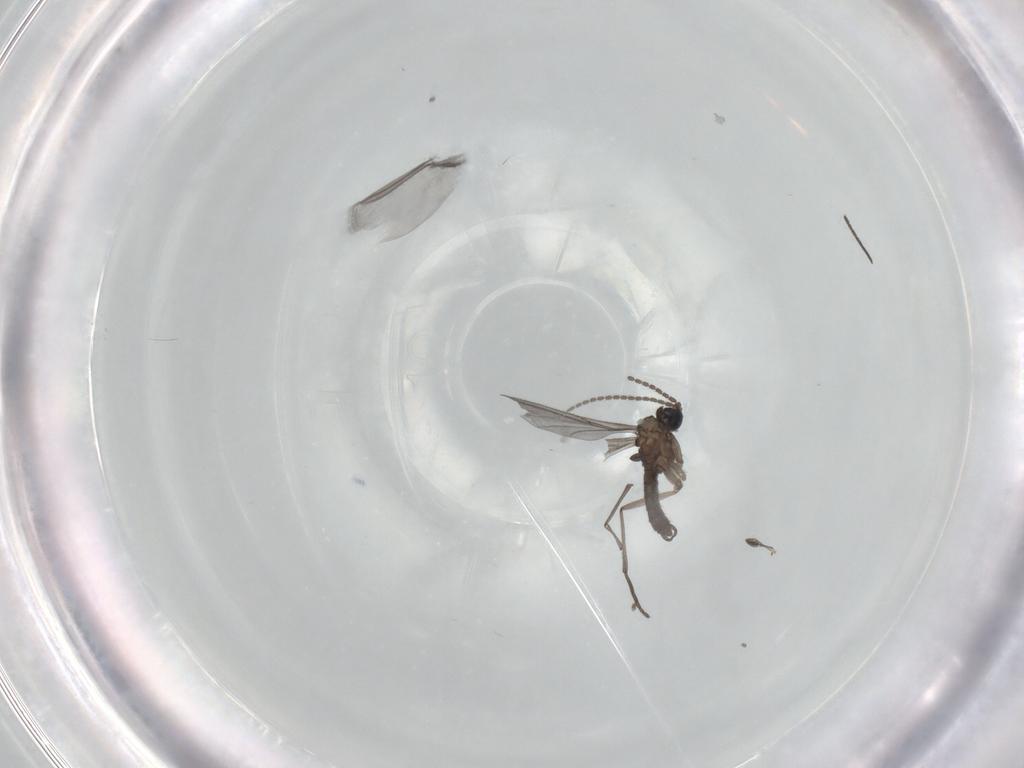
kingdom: Animalia
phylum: Arthropoda
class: Insecta
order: Diptera
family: Sciaridae
